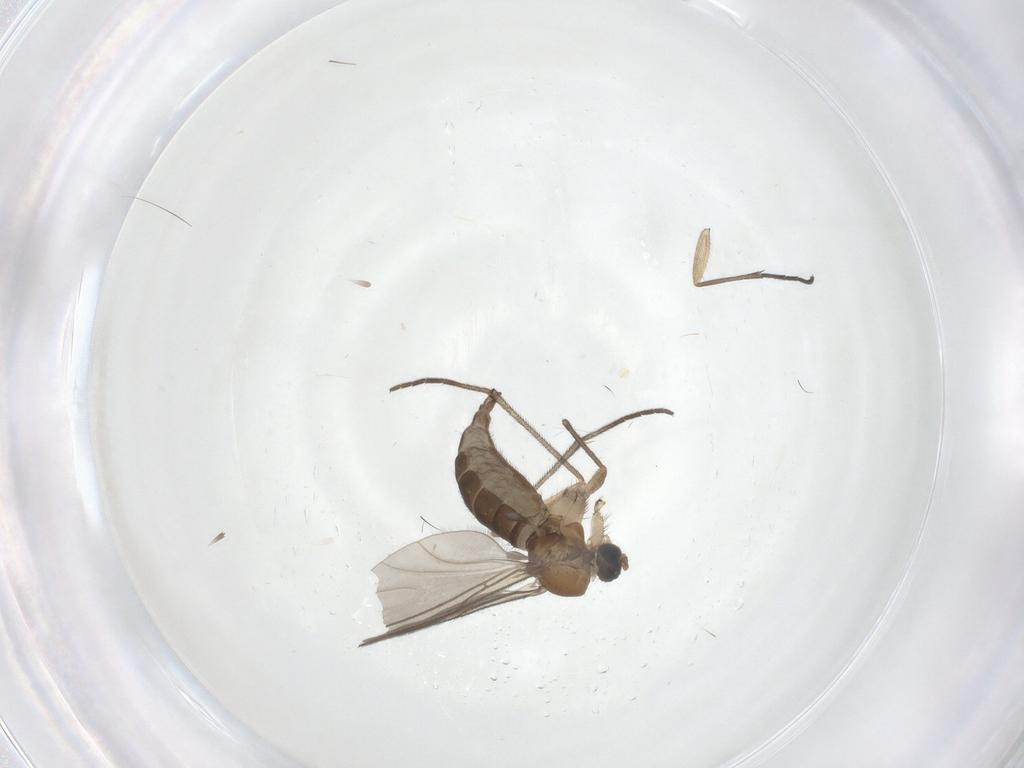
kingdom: Animalia
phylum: Arthropoda
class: Insecta
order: Diptera
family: Sciaridae
